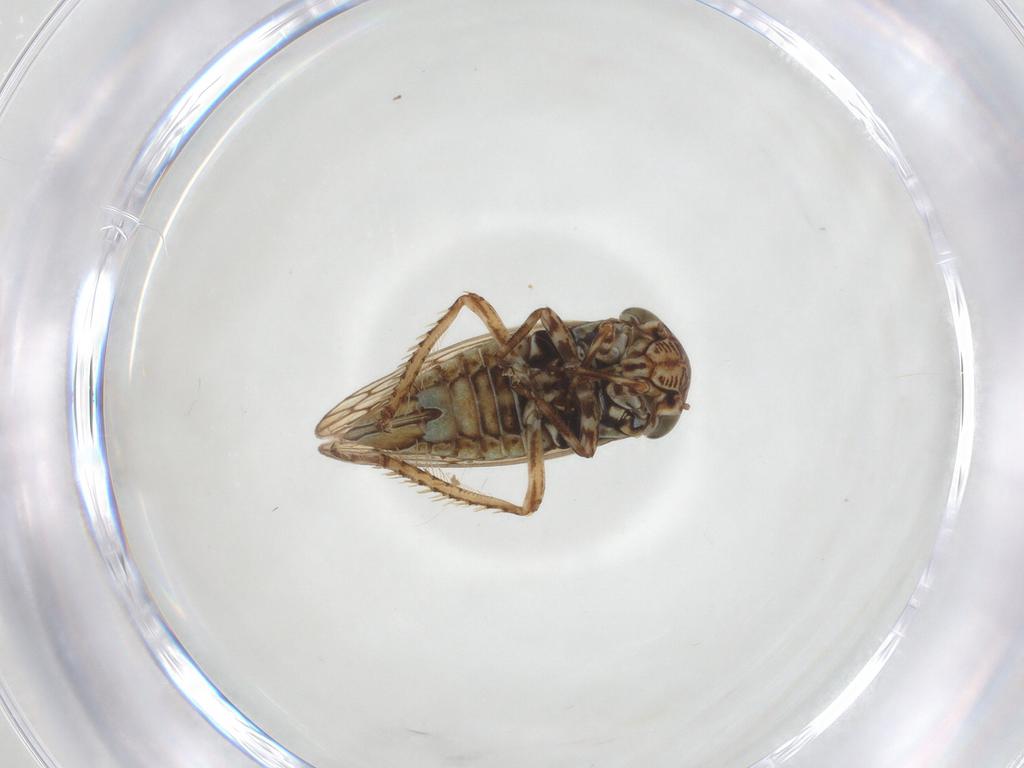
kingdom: Animalia
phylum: Arthropoda
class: Insecta
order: Hemiptera
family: Cicadellidae
